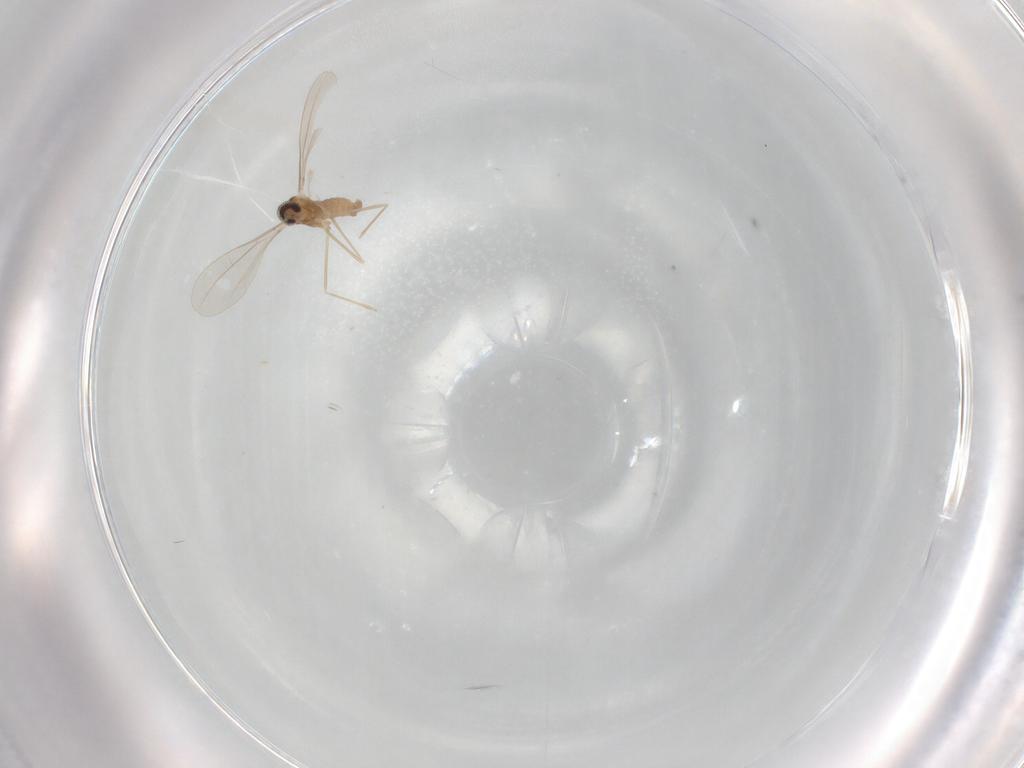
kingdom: Animalia
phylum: Arthropoda
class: Insecta
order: Diptera
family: Cecidomyiidae
